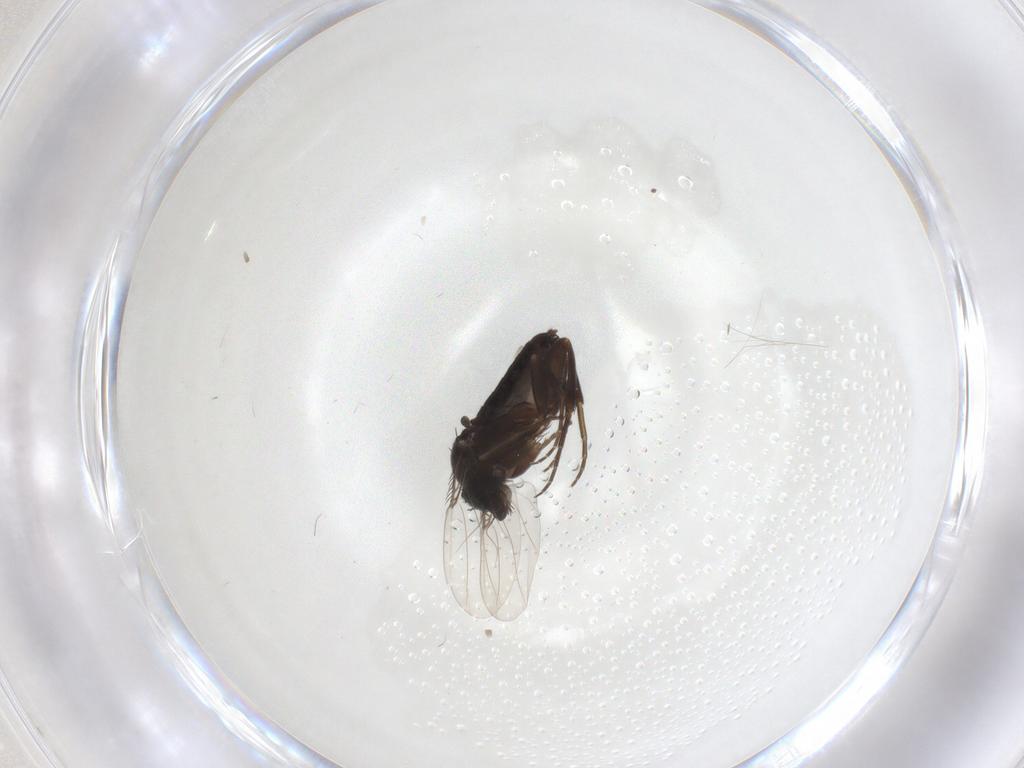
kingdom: Animalia
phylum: Arthropoda
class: Insecta
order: Diptera
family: Phoridae
